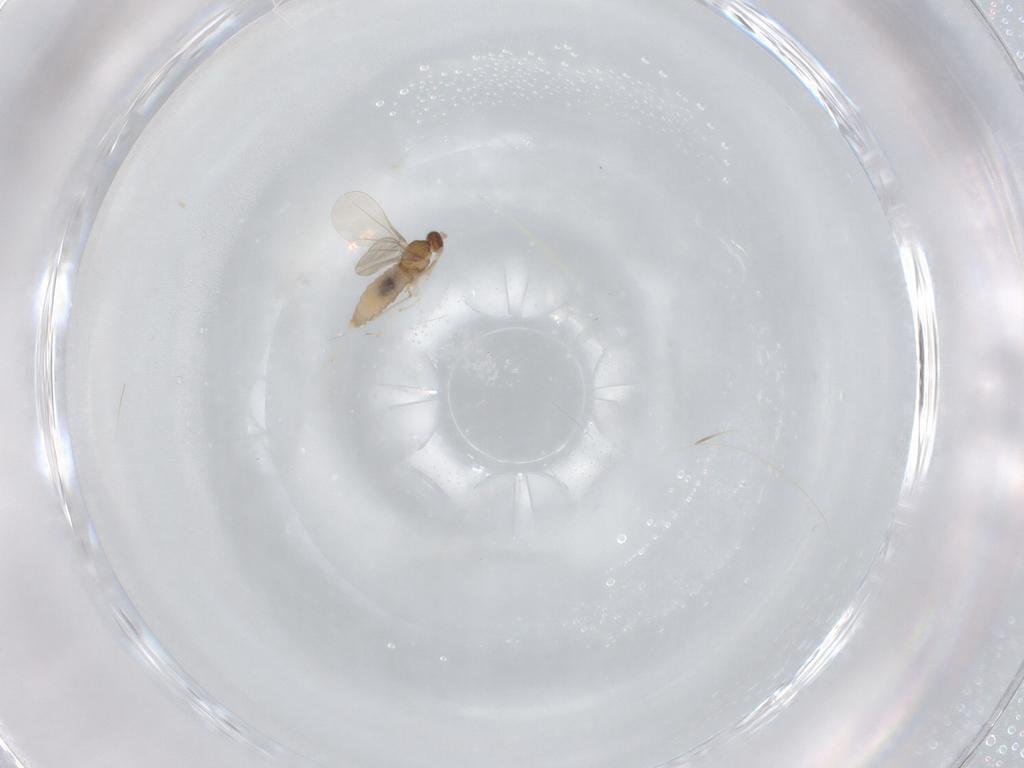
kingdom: Animalia
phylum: Arthropoda
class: Insecta
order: Diptera
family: Cecidomyiidae
